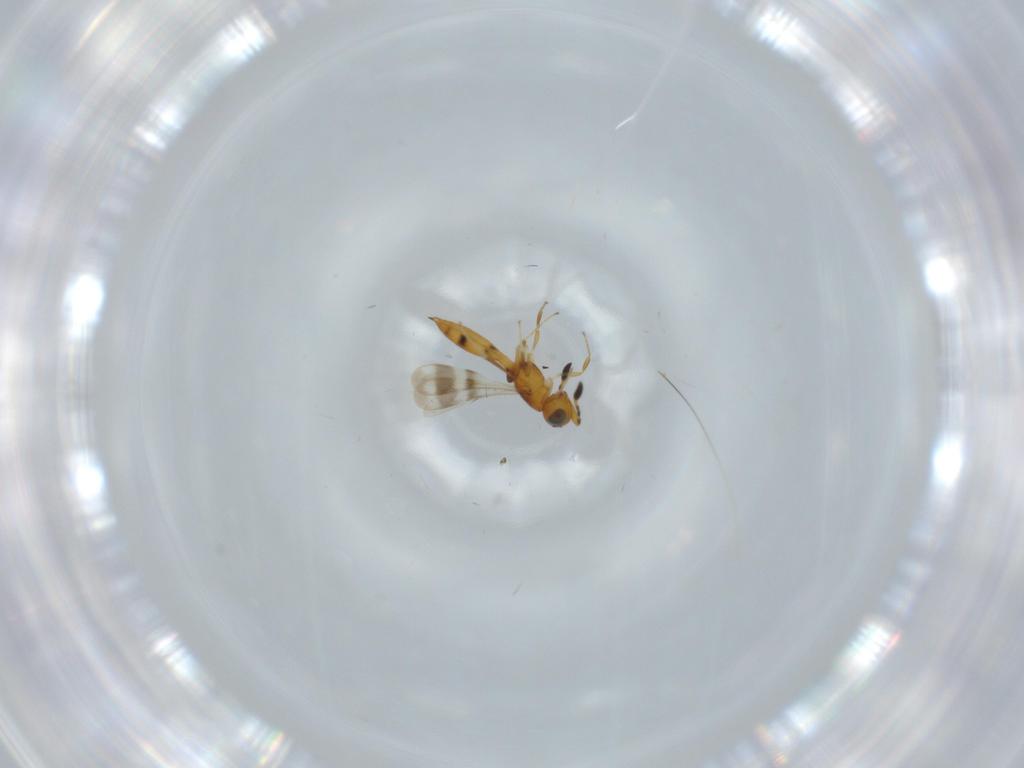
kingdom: Animalia
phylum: Arthropoda
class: Insecta
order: Hymenoptera
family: Scelionidae
